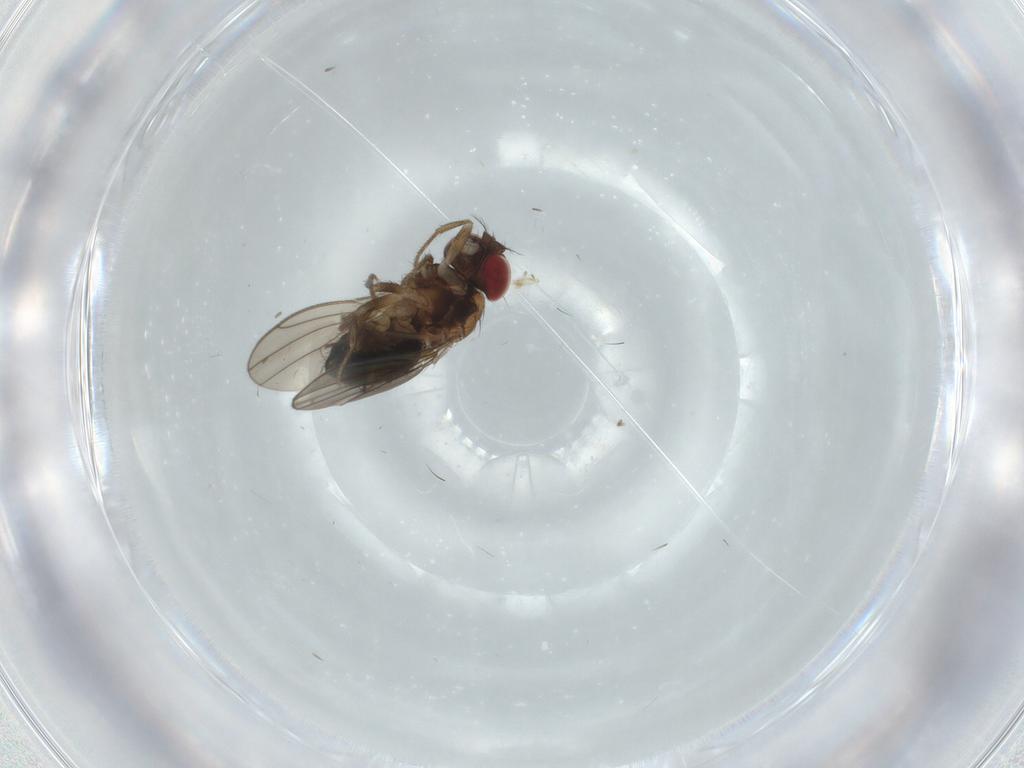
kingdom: Animalia
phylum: Arthropoda
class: Insecta
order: Diptera
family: Drosophilidae
